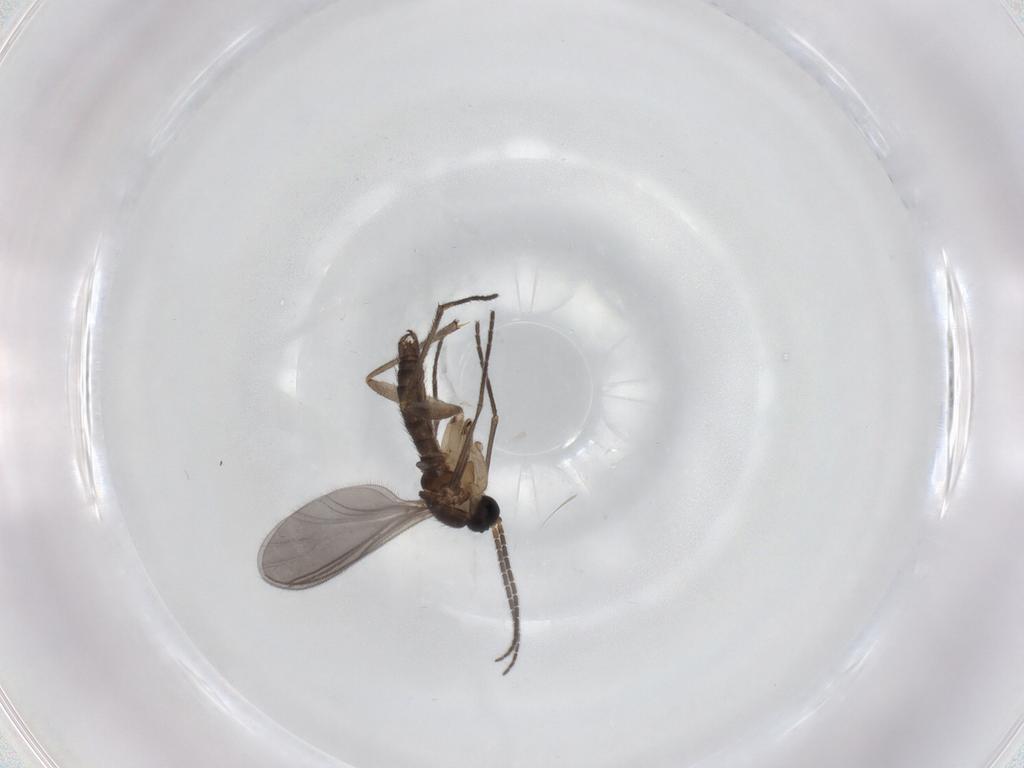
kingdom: Animalia
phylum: Arthropoda
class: Insecta
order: Diptera
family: Sciaridae
